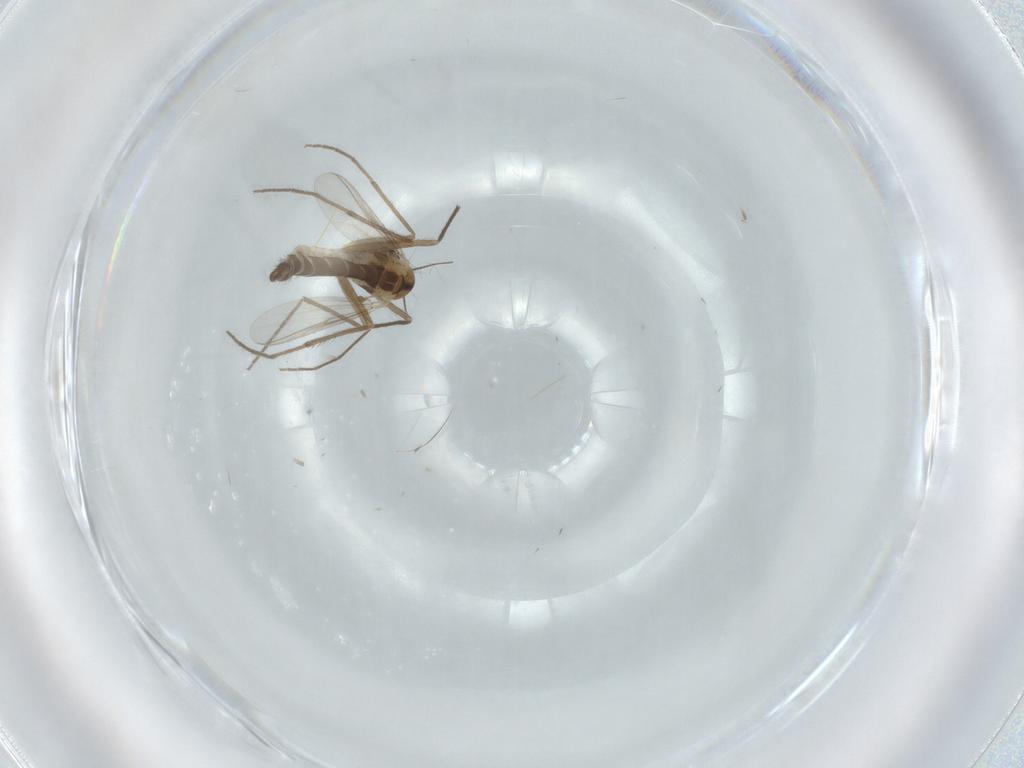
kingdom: Animalia
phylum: Arthropoda
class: Insecta
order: Diptera
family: Chironomidae
